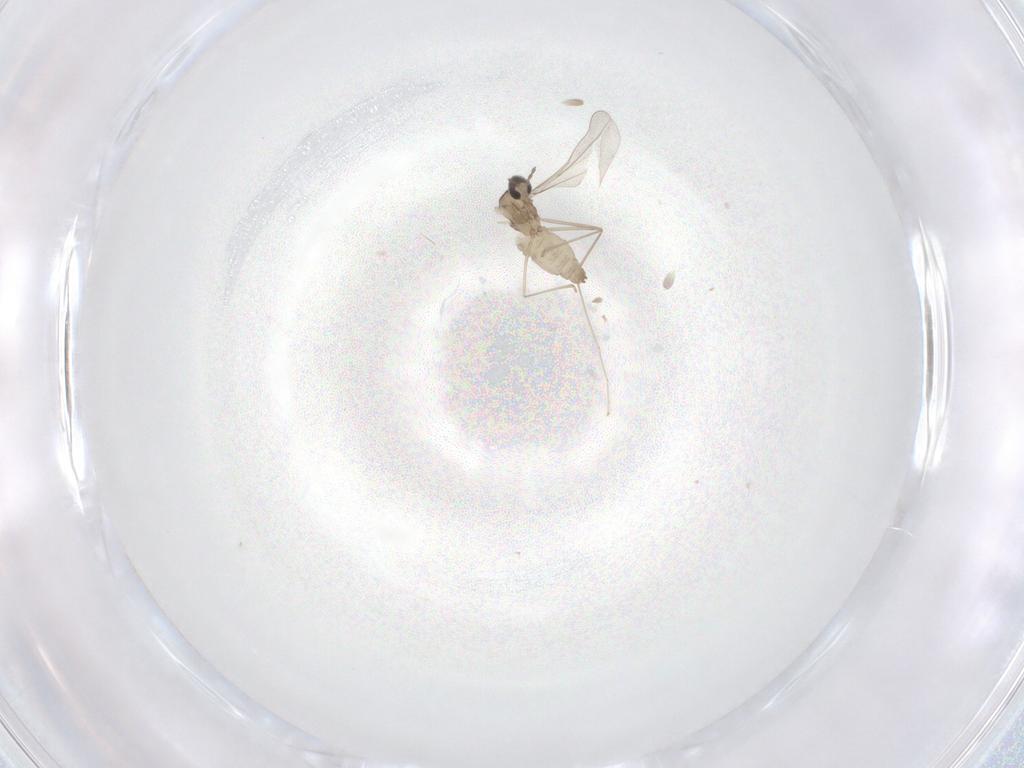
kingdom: Animalia
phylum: Arthropoda
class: Insecta
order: Diptera
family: Cecidomyiidae
